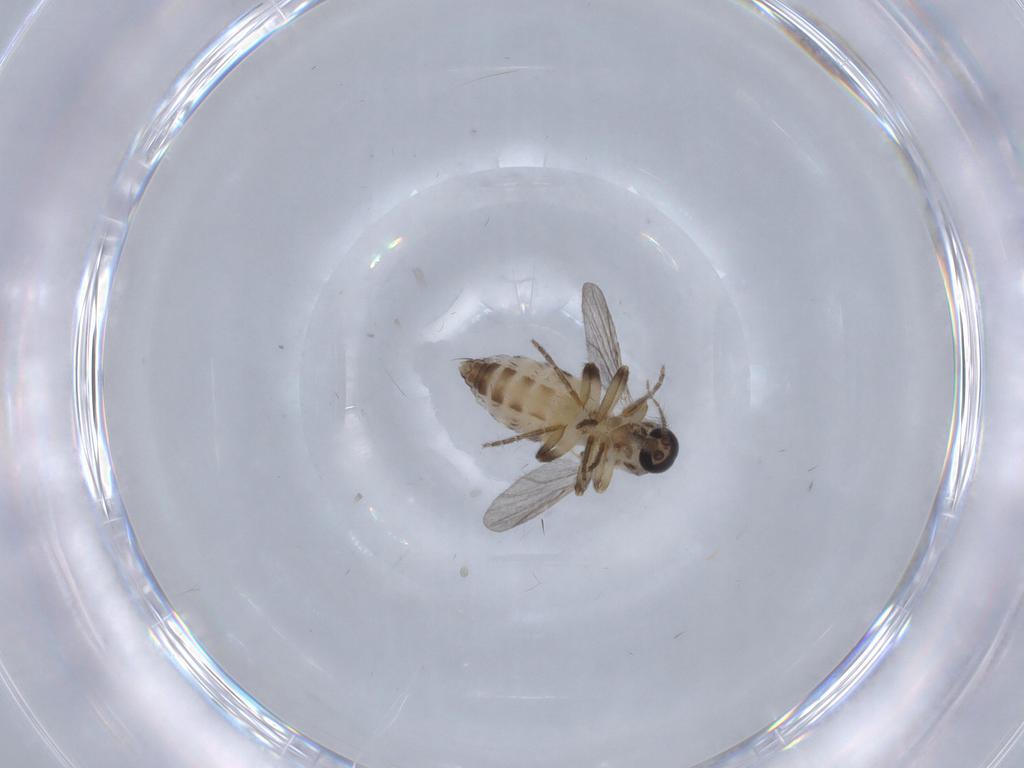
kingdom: Animalia
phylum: Arthropoda
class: Insecta
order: Diptera
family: Ceratopogonidae
